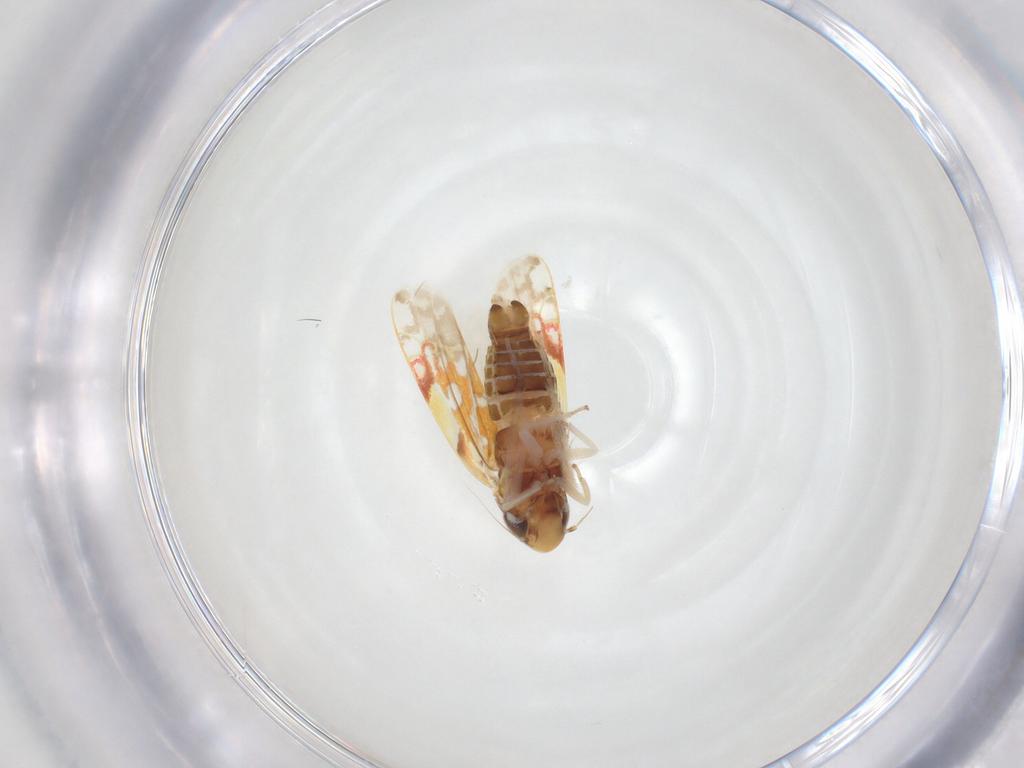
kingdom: Animalia
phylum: Arthropoda
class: Insecta
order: Hemiptera
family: Cicadellidae
